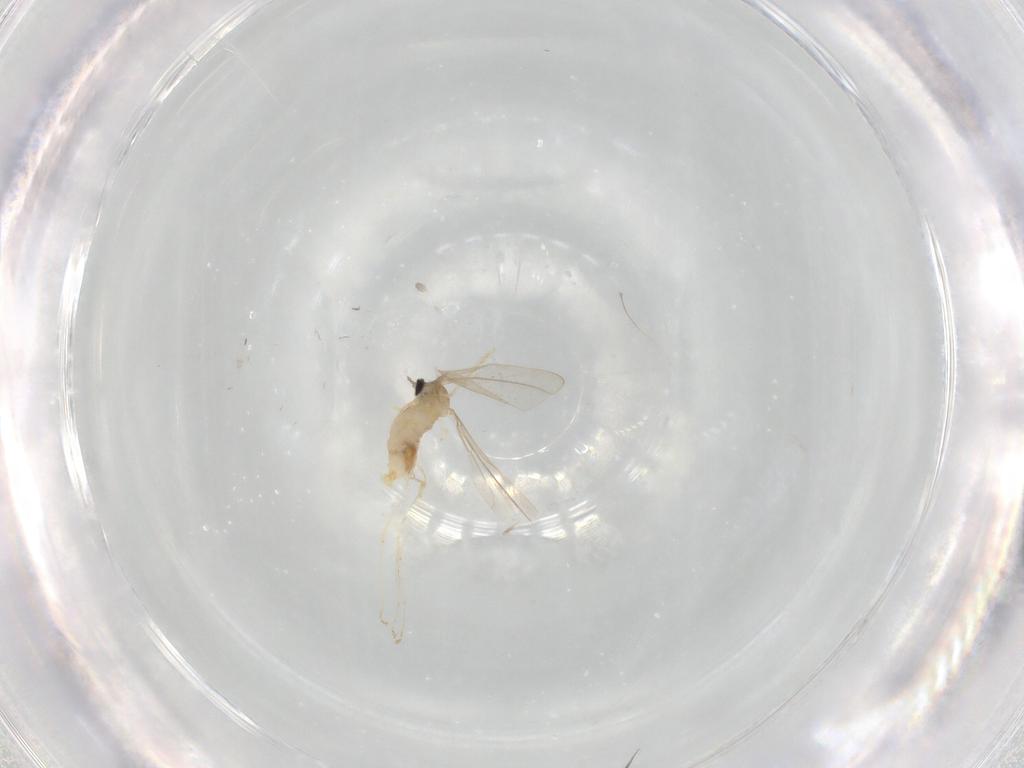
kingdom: Animalia
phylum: Arthropoda
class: Insecta
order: Diptera
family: Cecidomyiidae
